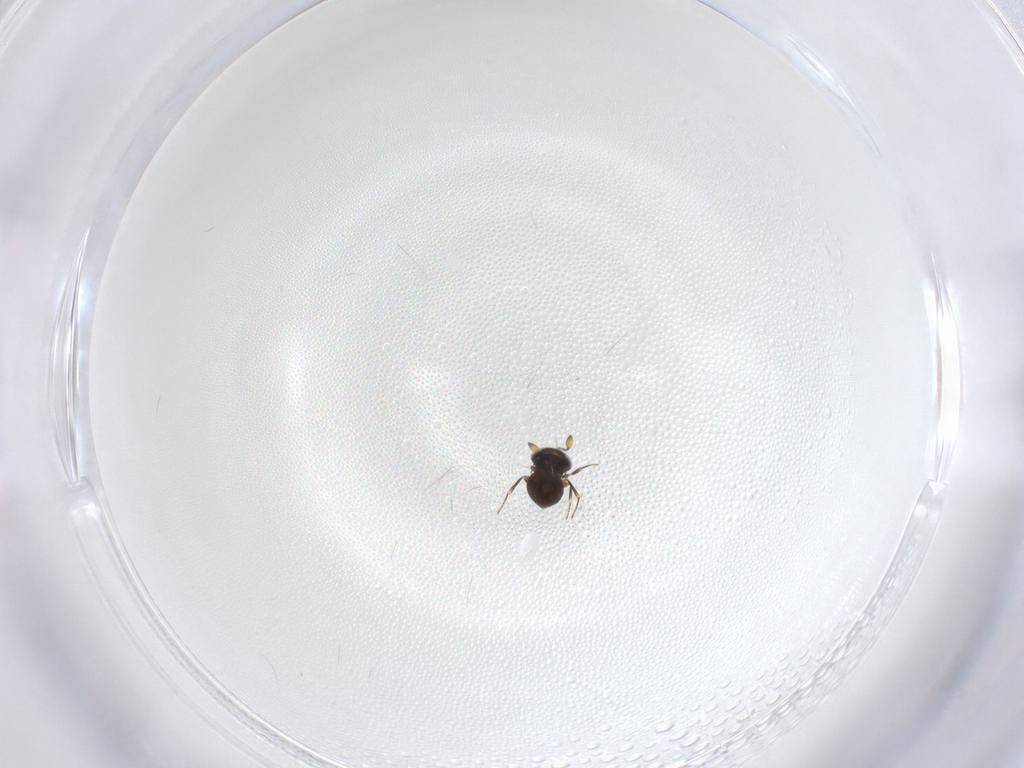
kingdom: Animalia
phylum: Arthropoda
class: Insecta
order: Hymenoptera
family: Scelionidae
